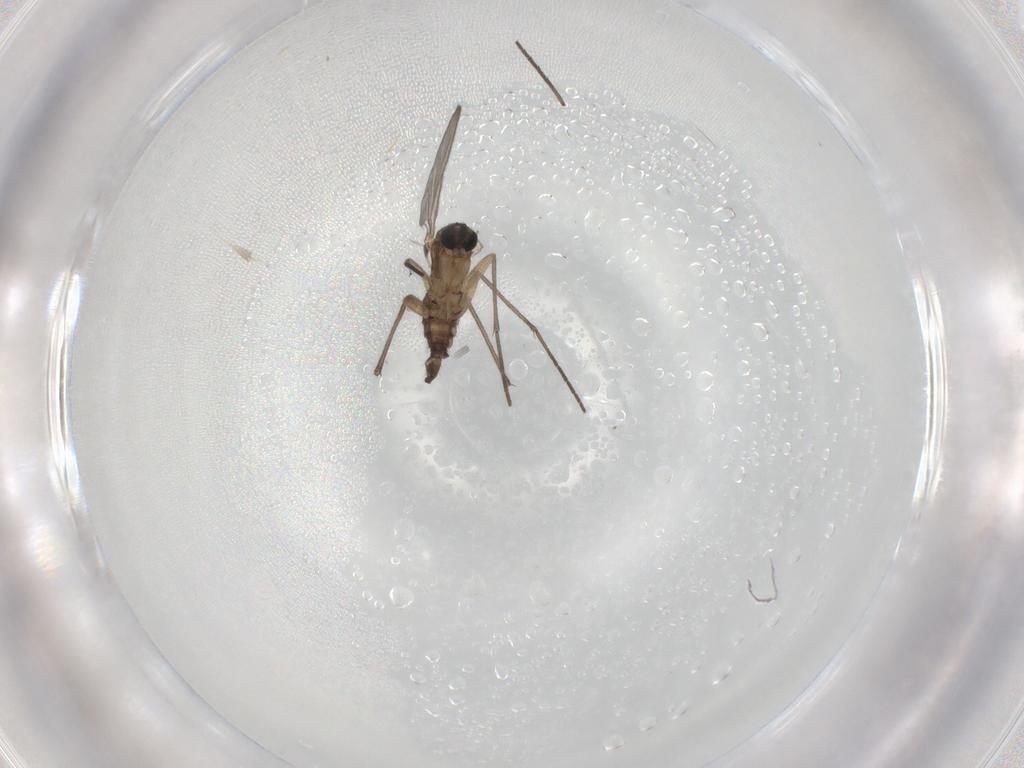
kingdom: Animalia
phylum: Arthropoda
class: Insecta
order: Diptera
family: Sciaridae
